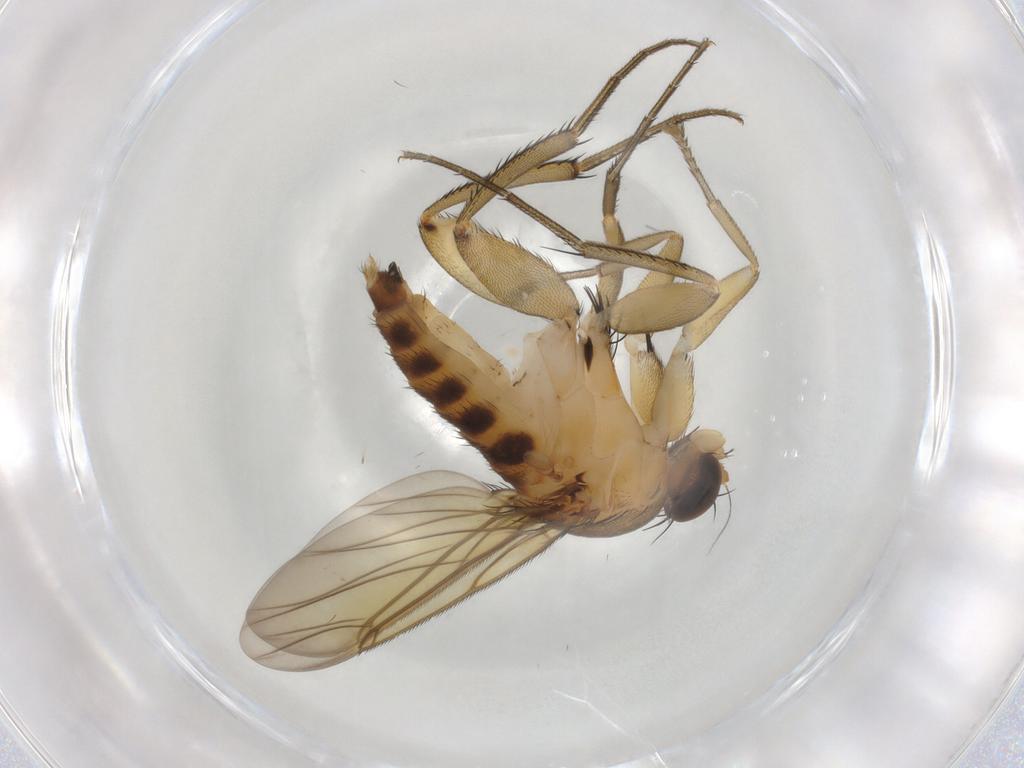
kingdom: Animalia
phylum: Arthropoda
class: Insecta
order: Diptera
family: Phoridae
